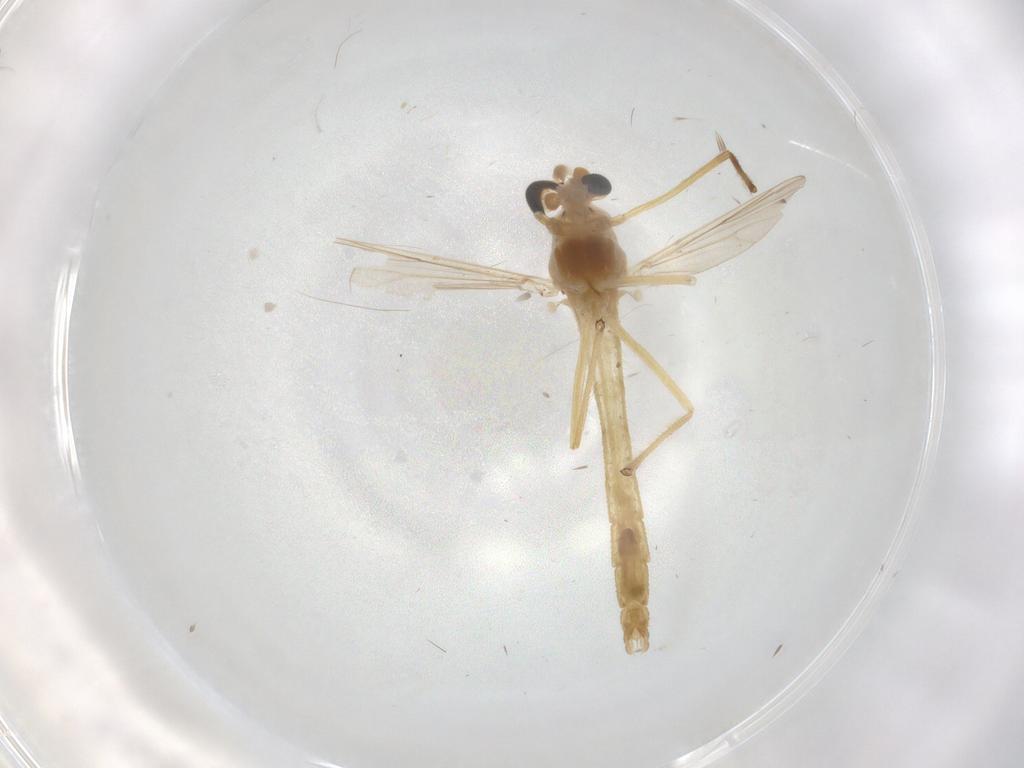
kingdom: Animalia
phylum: Arthropoda
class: Insecta
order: Diptera
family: Chironomidae
